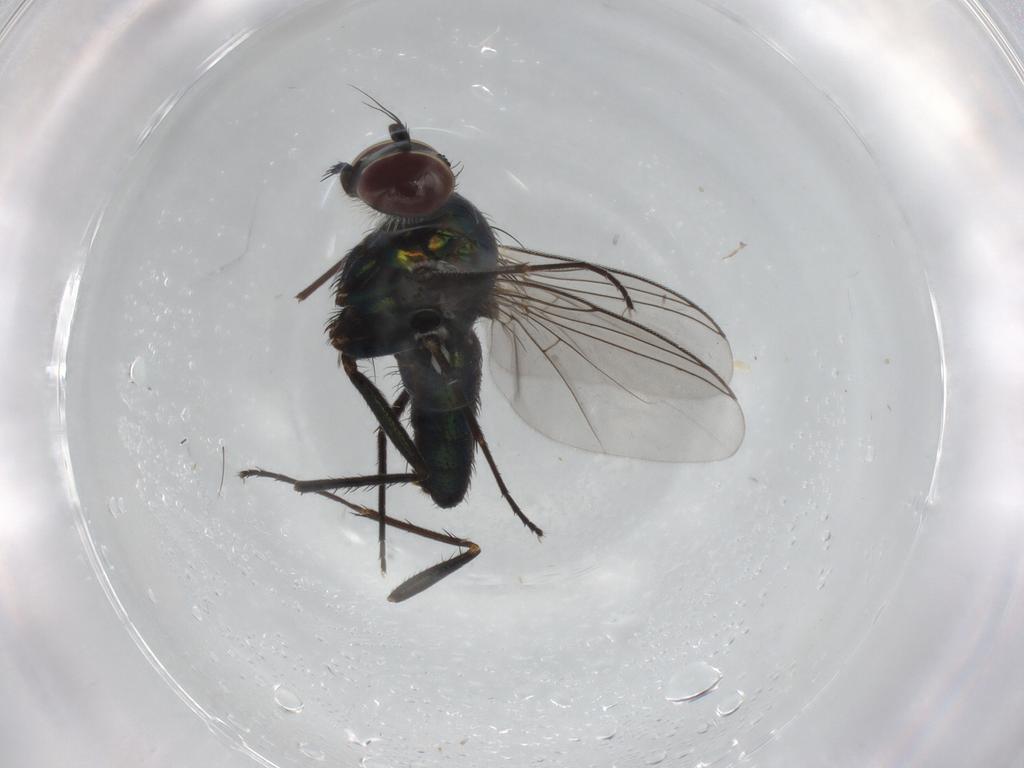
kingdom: Animalia
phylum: Arthropoda
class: Insecta
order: Diptera
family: Dolichopodidae
